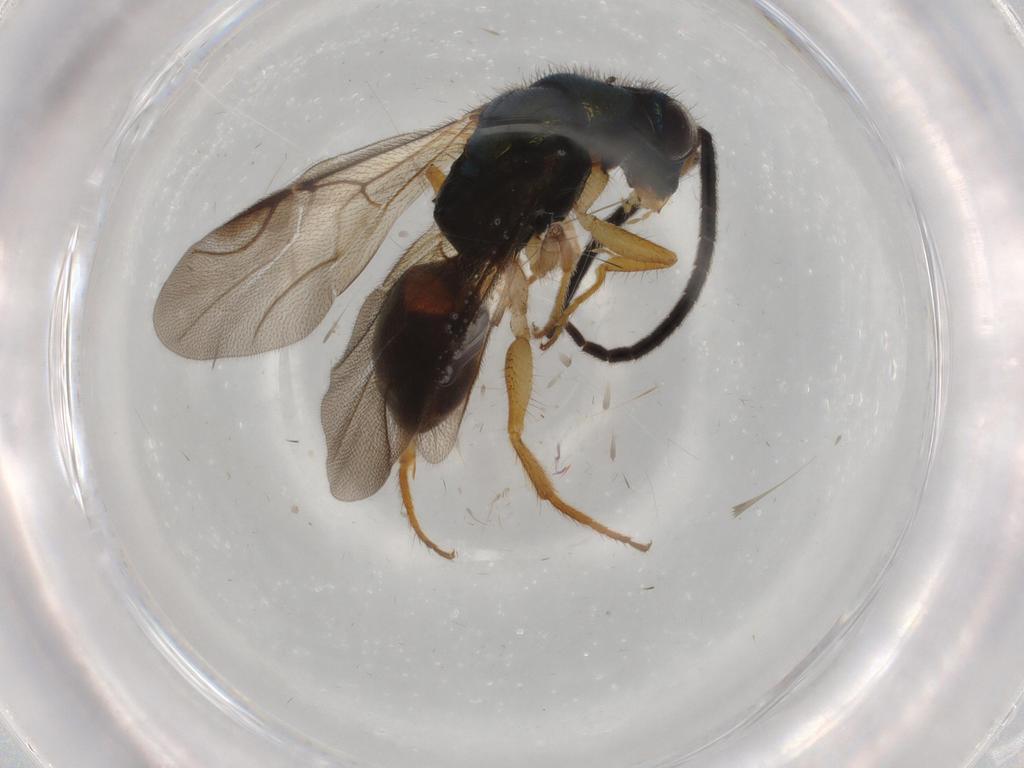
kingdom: Animalia
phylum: Arthropoda
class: Insecta
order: Hymenoptera
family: Chrysididae
